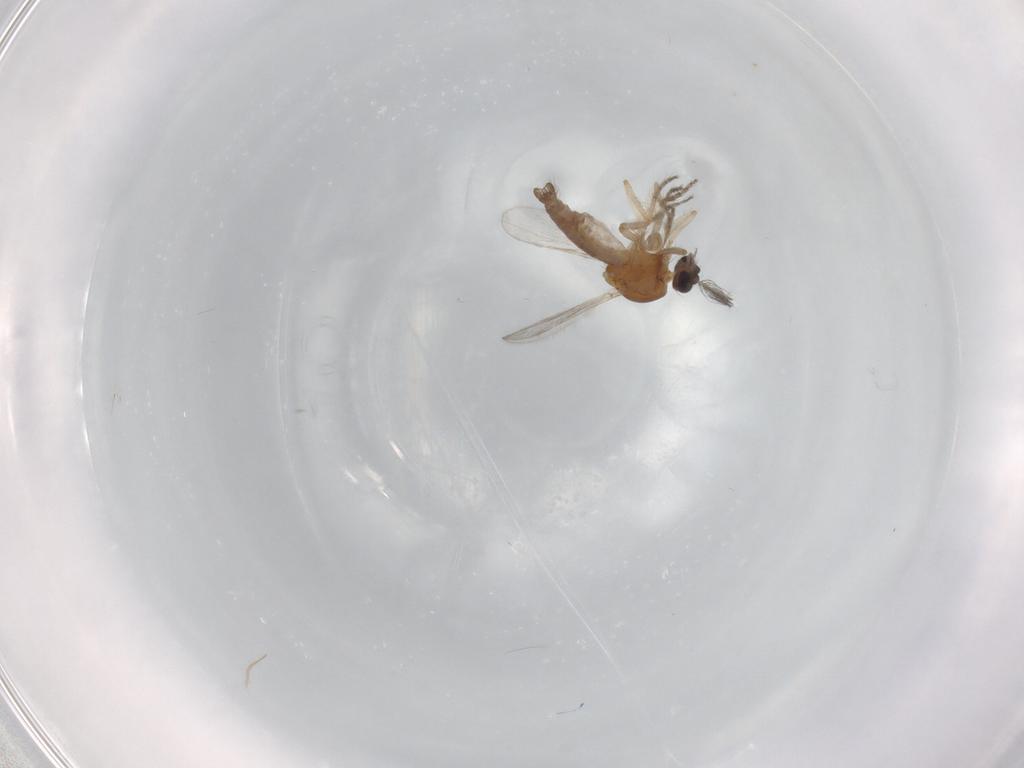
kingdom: Animalia
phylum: Arthropoda
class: Insecta
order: Diptera
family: Ceratopogonidae
